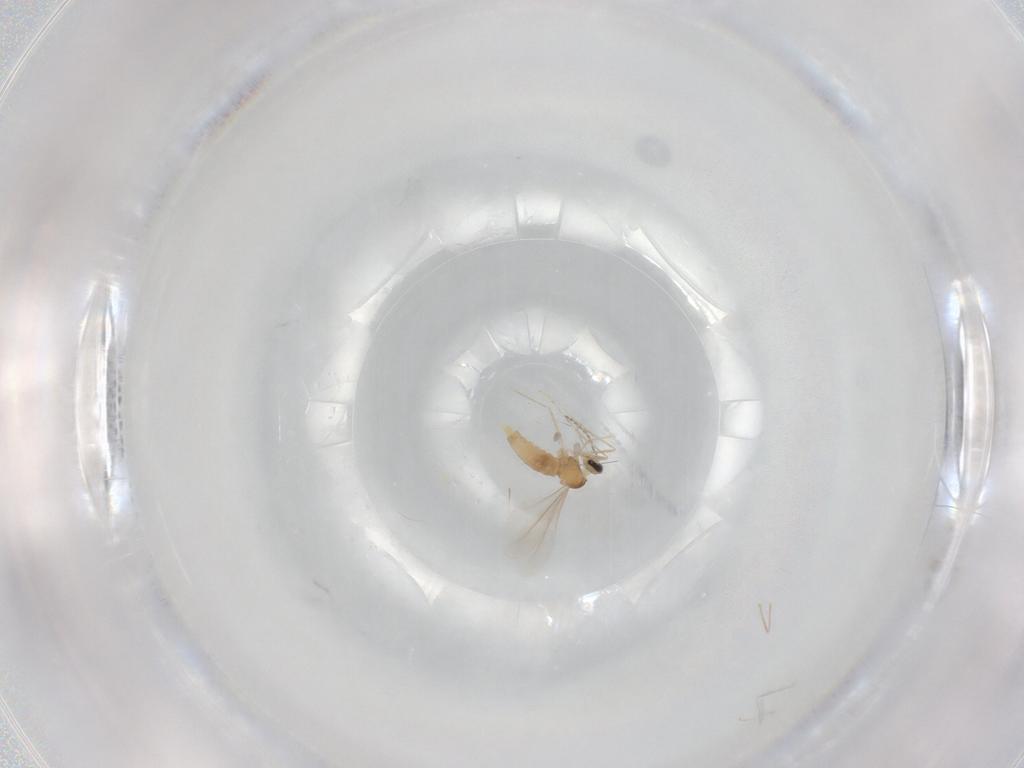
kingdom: Animalia
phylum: Arthropoda
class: Insecta
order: Diptera
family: Cecidomyiidae
